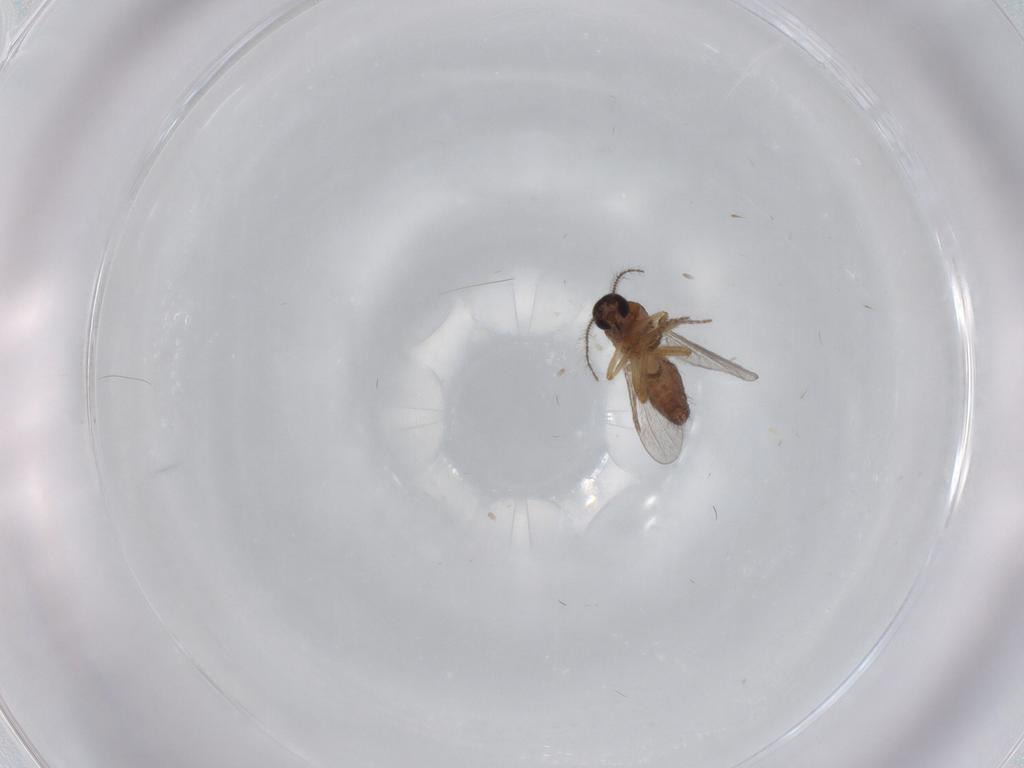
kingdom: Animalia
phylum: Arthropoda
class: Insecta
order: Diptera
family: Ceratopogonidae
